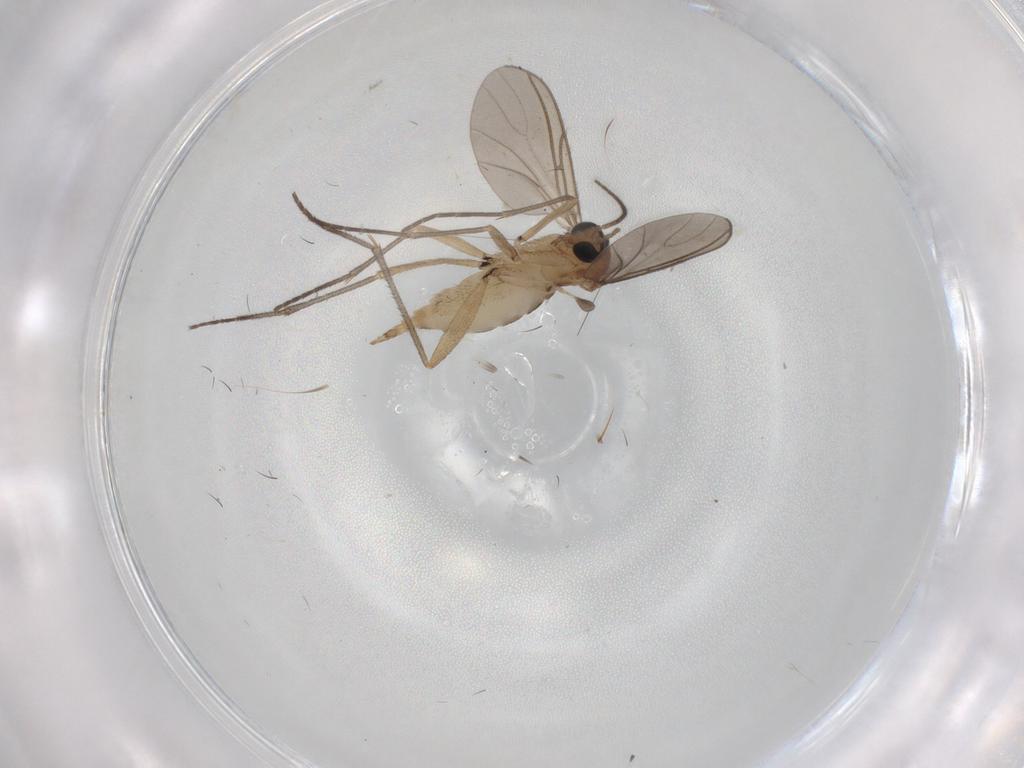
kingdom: Animalia
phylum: Arthropoda
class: Insecta
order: Diptera
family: Sciaridae
